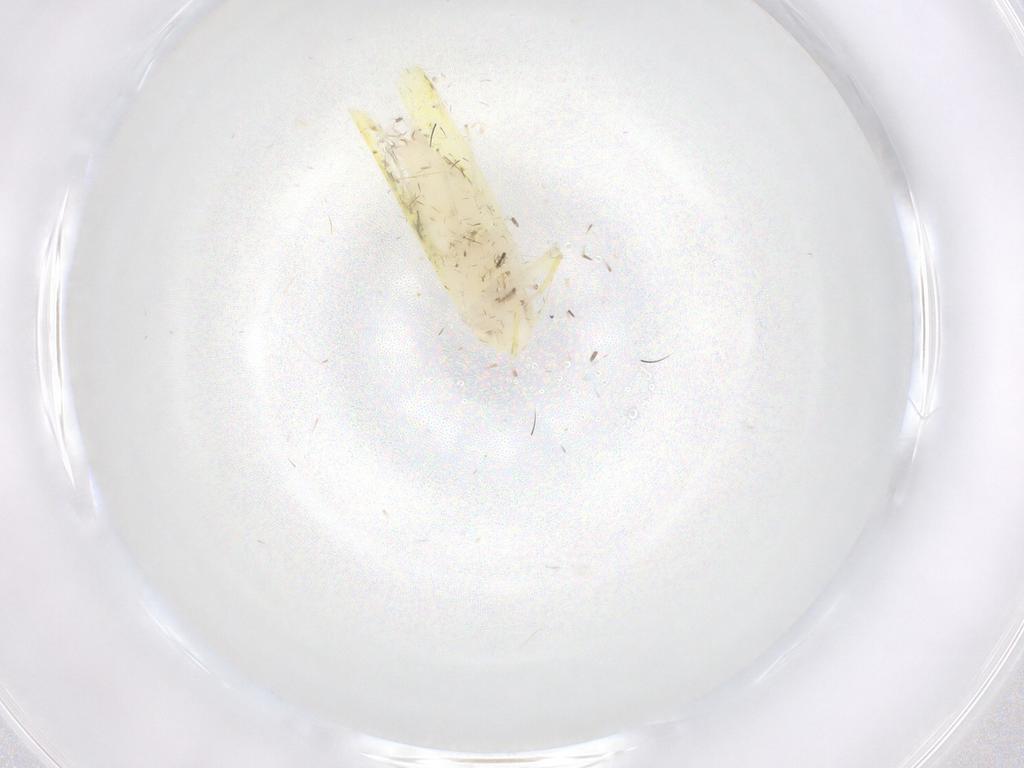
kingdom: Animalia
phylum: Arthropoda
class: Insecta
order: Hemiptera
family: Cicadellidae
